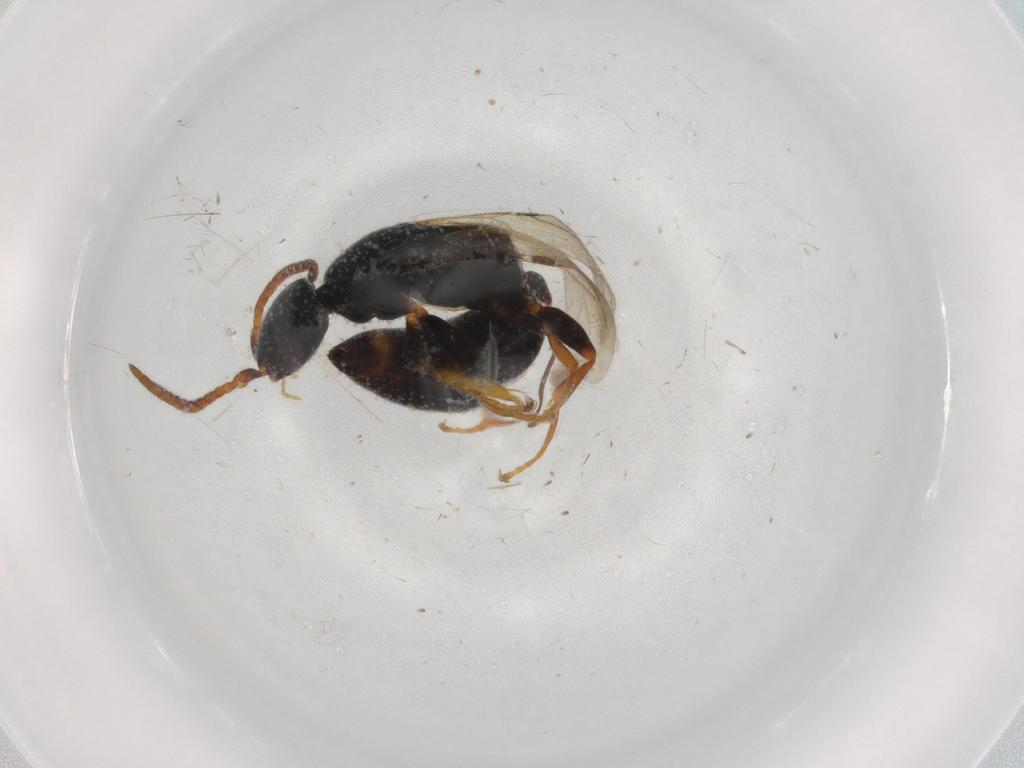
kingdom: Animalia
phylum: Arthropoda
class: Insecta
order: Hymenoptera
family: Bethylidae
